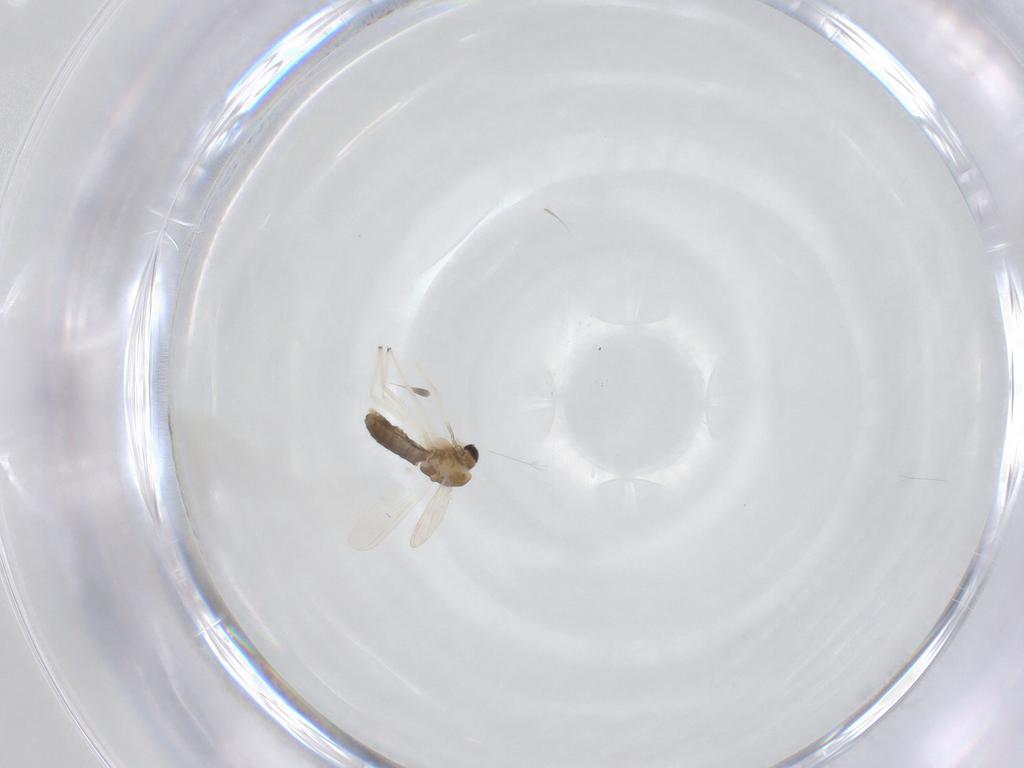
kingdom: Animalia
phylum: Arthropoda
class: Insecta
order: Diptera
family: Chironomidae
